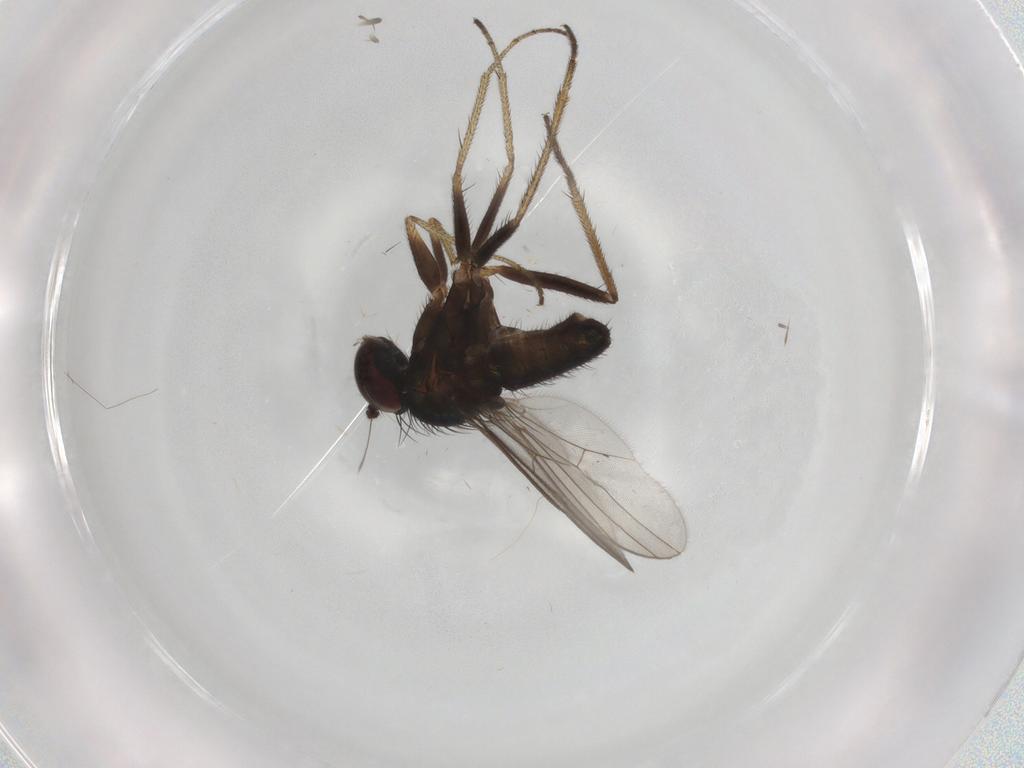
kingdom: Animalia
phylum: Arthropoda
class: Insecta
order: Diptera
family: Dolichopodidae
